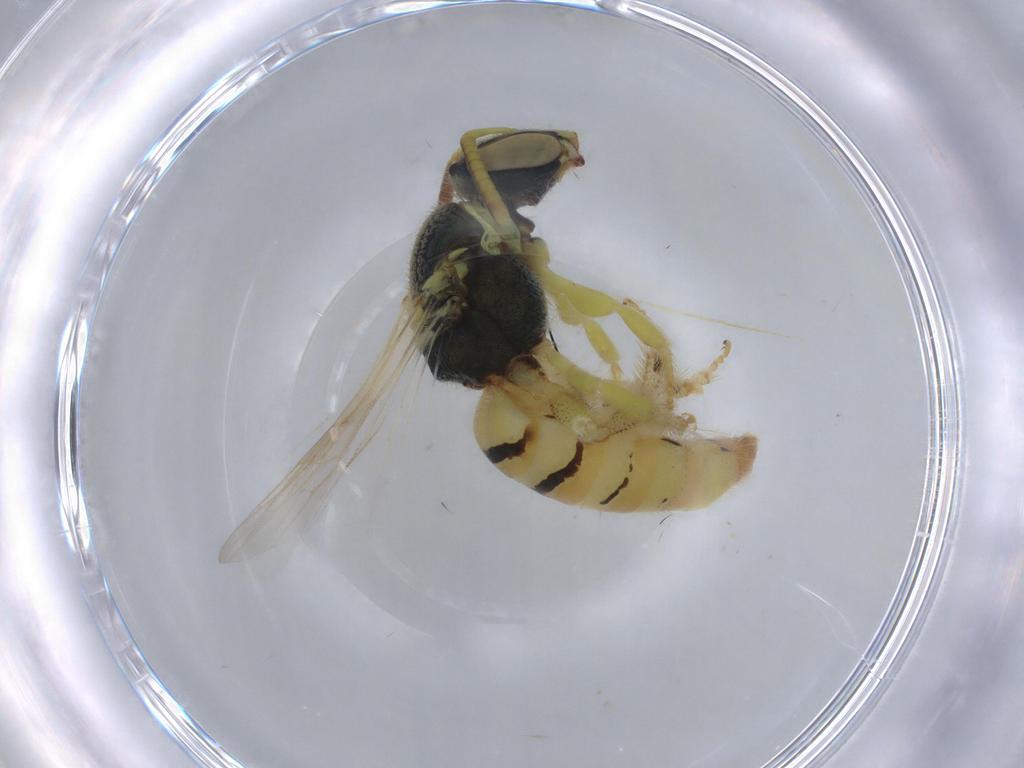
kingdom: Animalia
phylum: Arthropoda
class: Insecta
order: Hymenoptera
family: Halictidae
